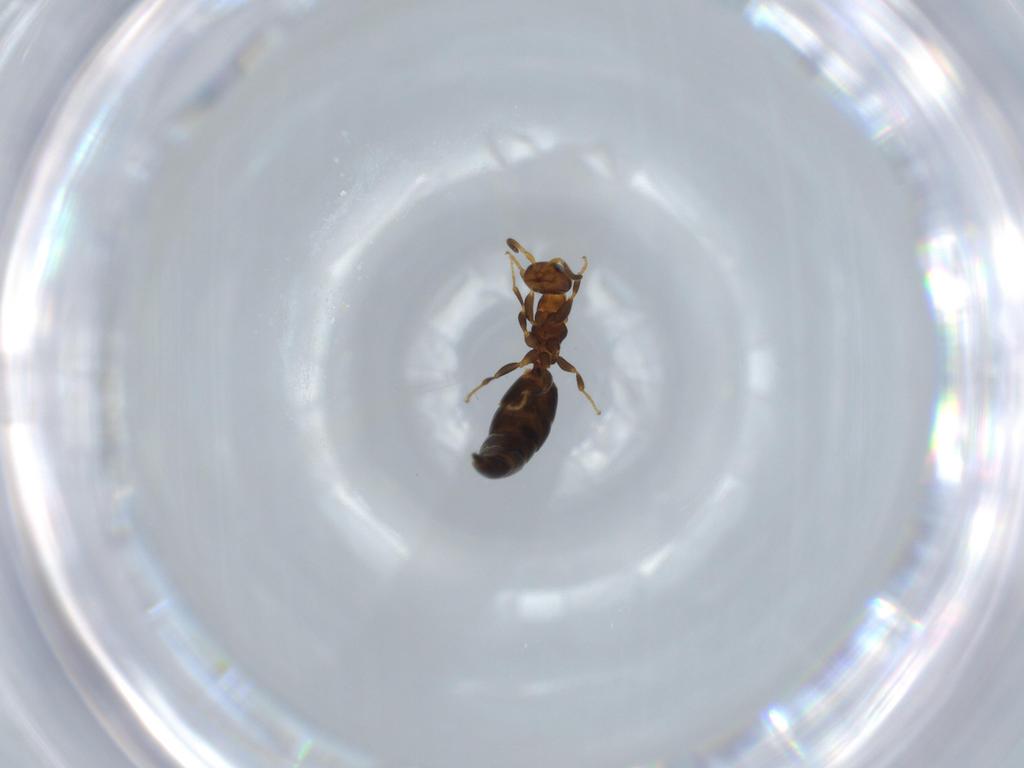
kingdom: Animalia
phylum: Arthropoda
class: Insecta
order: Hymenoptera
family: Bethylidae
